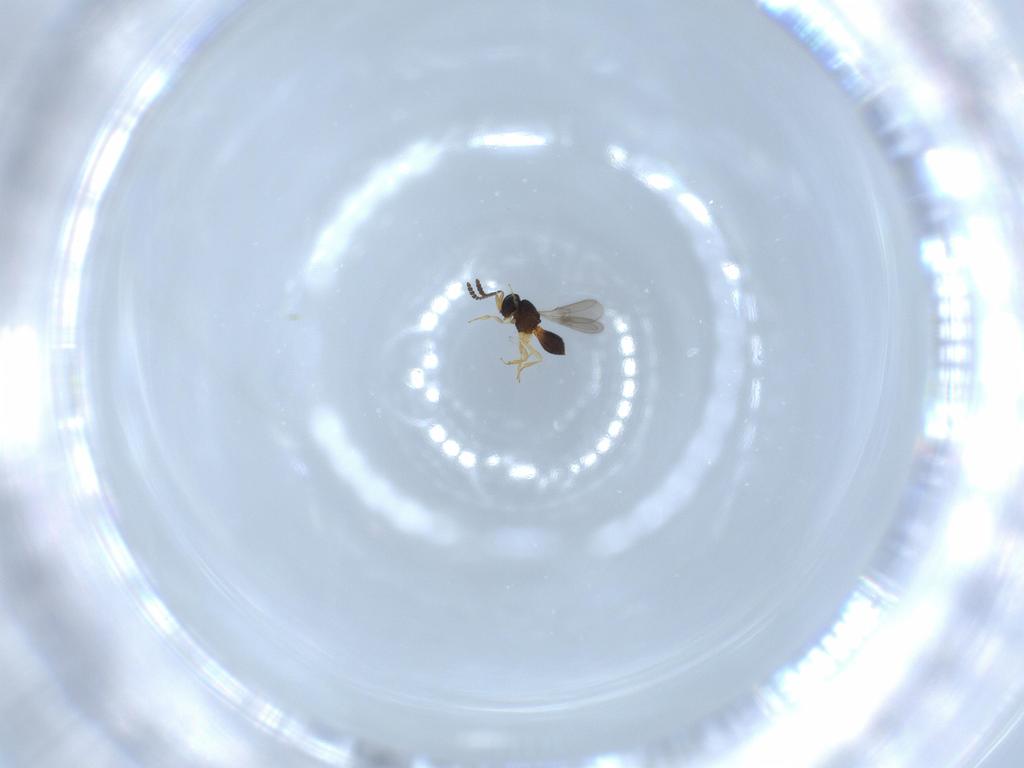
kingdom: Animalia
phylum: Arthropoda
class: Insecta
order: Hymenoptera
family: Scelionidae
